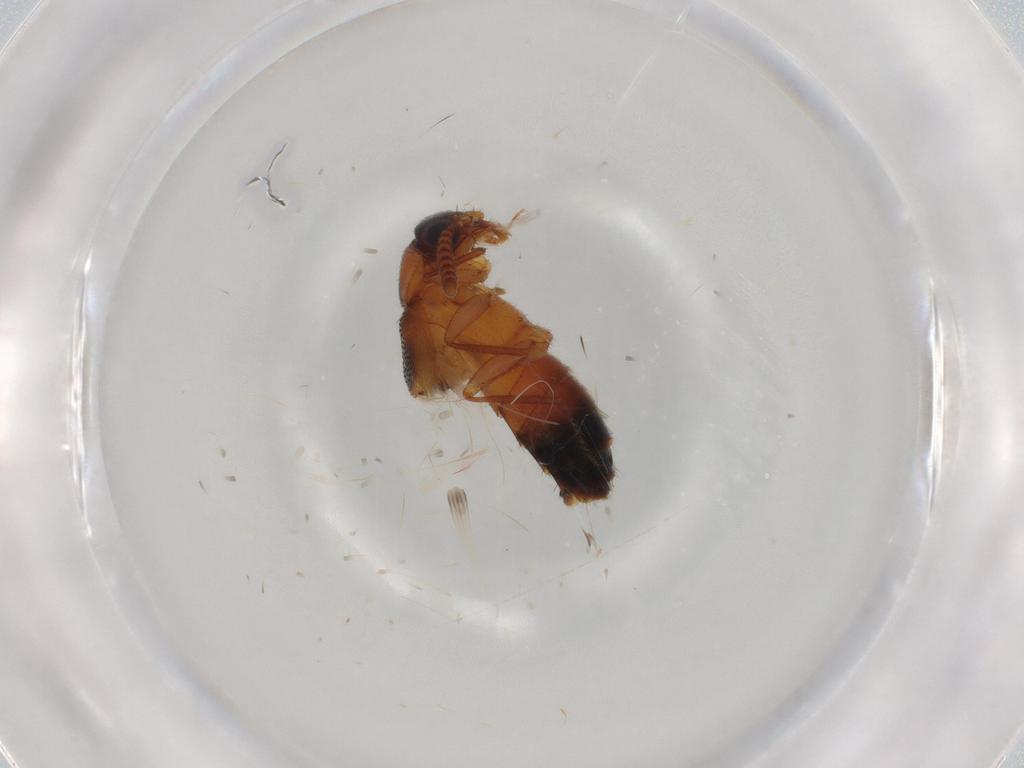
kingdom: Animalia
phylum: Arthropoda
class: Insecta
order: Coleoptera
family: Staphylinidae
